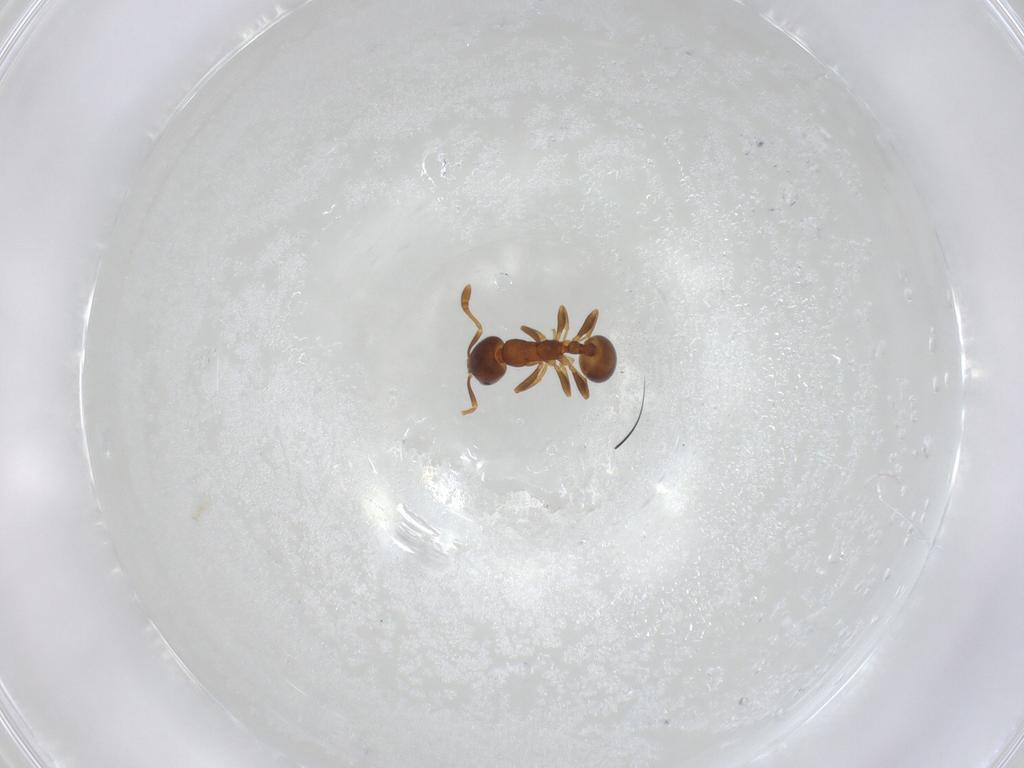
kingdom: Animalia
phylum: Arthropoda
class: Insecta
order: Hymenoptera
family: Formicidae
